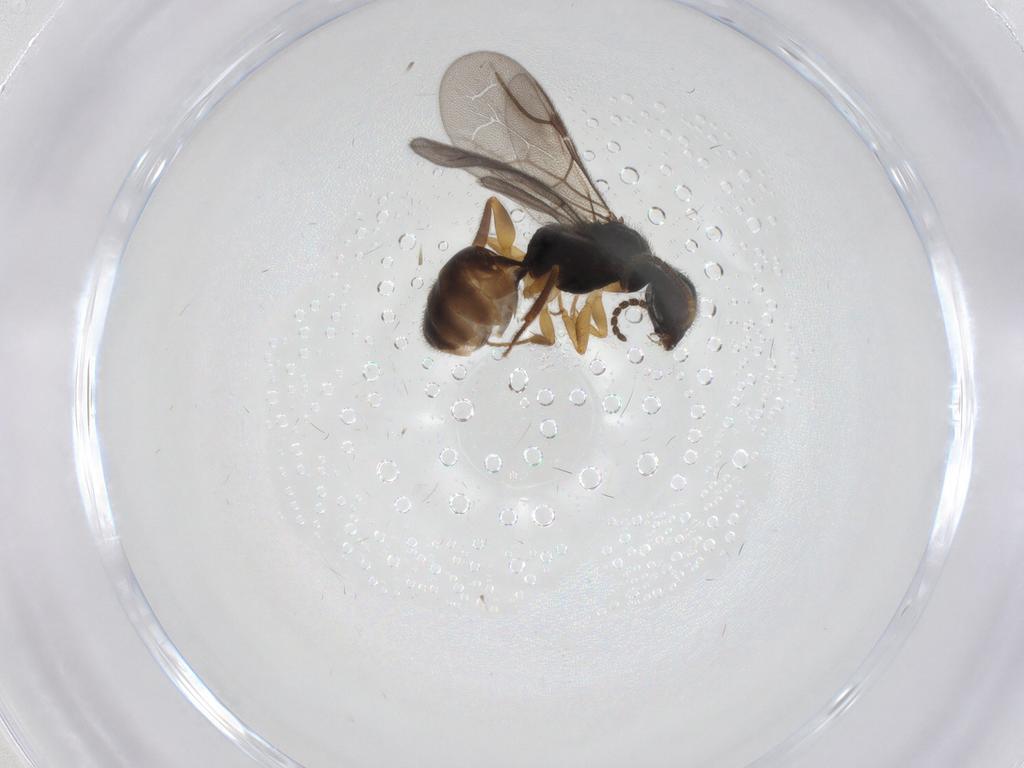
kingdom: Animalia
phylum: Arthropoda
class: Insecta
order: Hymenoptera
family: Bethylidae
